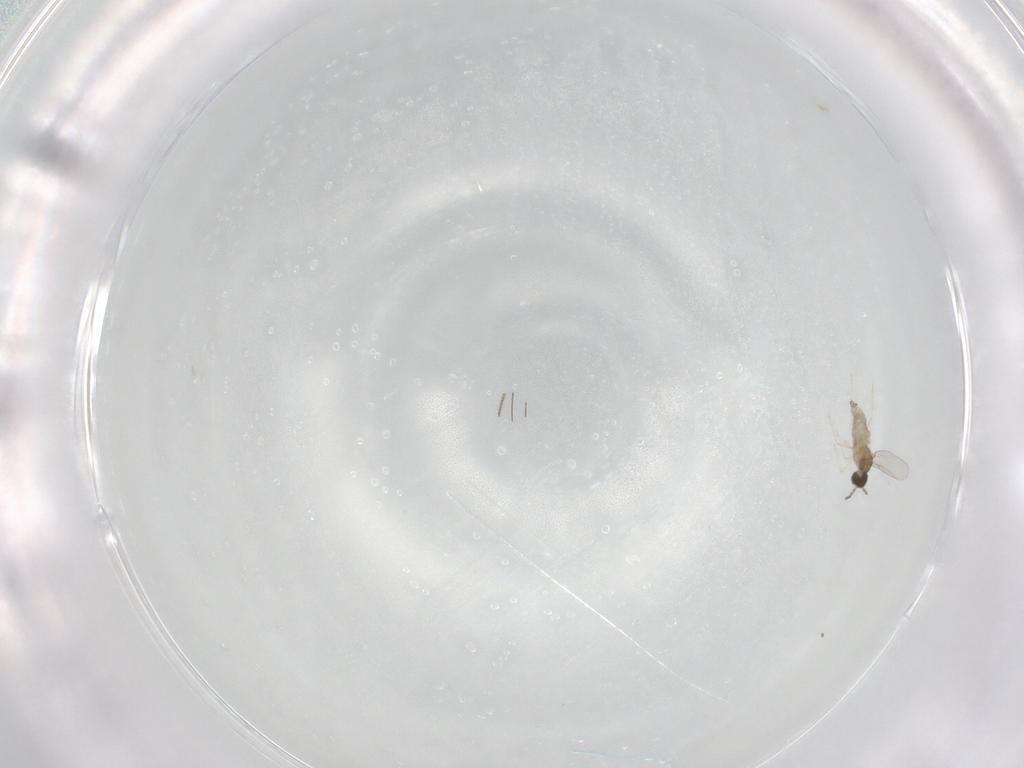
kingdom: Animalia
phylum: Arthropoda
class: Insecta
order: Diptera
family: Cecidomyiidae
